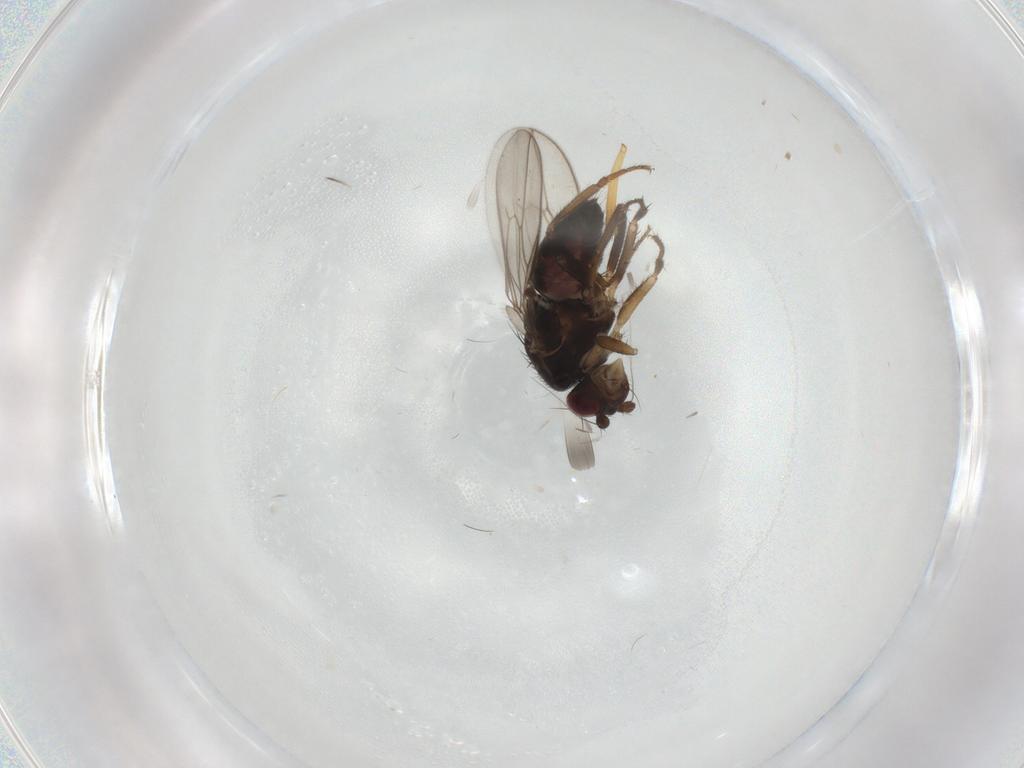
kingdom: Animalia
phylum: Arthropoda
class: Insecta
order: Diptera
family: Sphaeroceridae
